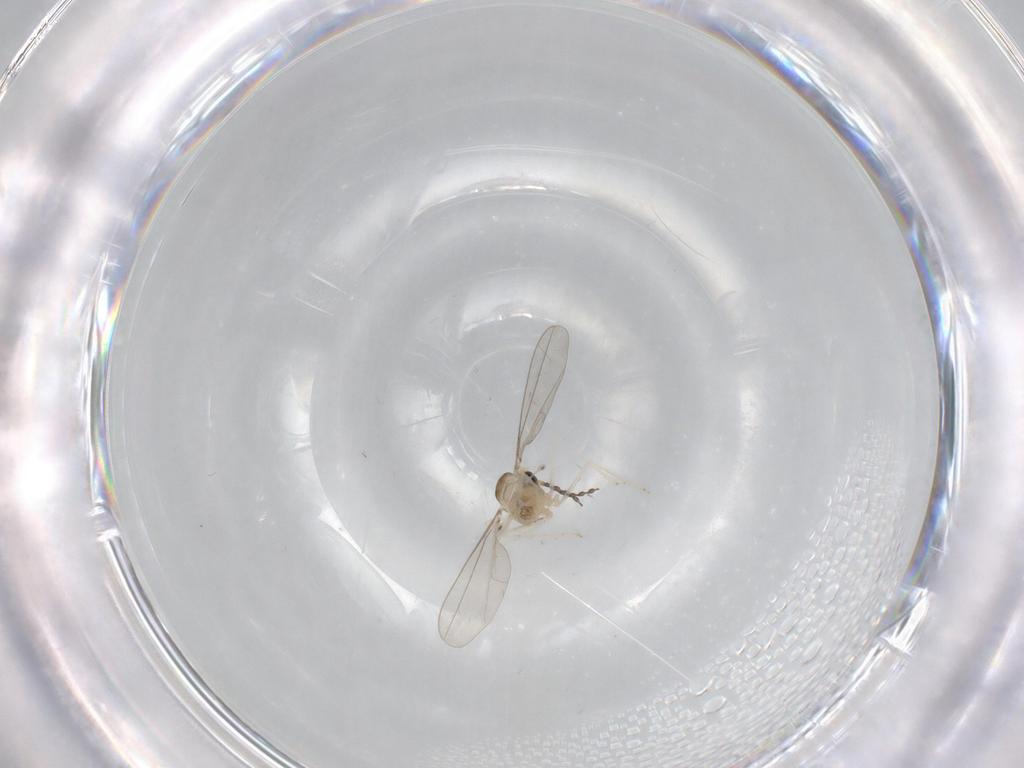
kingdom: Animalia
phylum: Arthropoda
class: Insecta
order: Diptera
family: Cecidomyiidae
